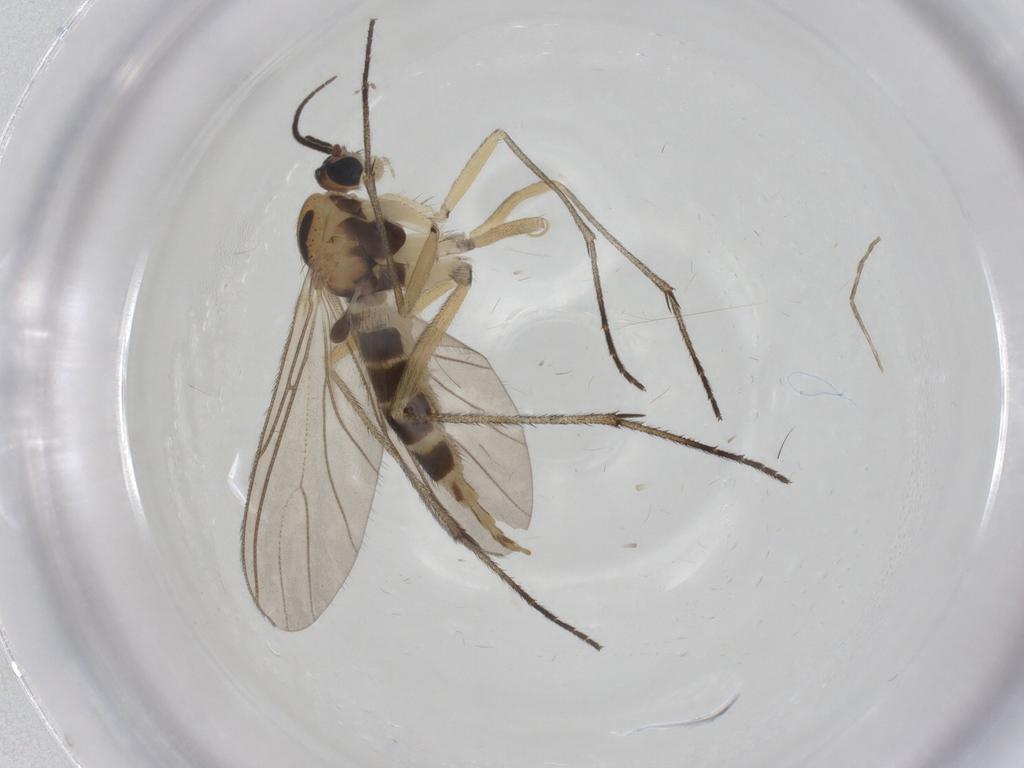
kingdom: Animalia
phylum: Arthropoda
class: Insecta
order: Diptera
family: Sciaridae
